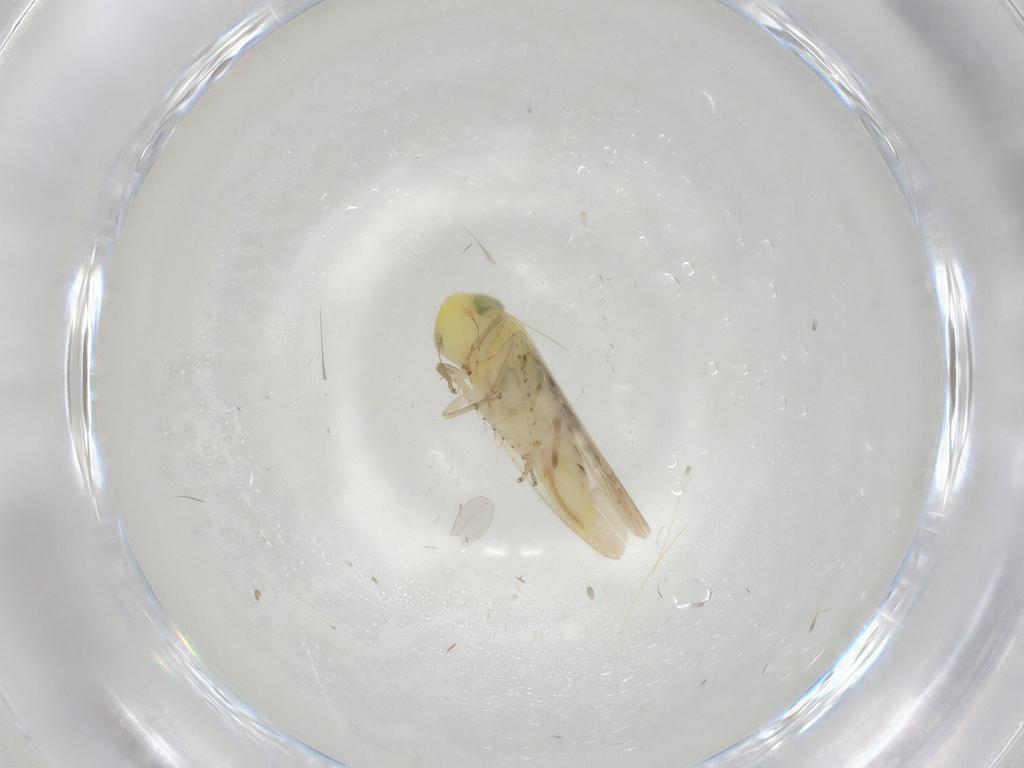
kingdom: Animalia
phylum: Arthropoda
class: Insecta
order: Hemiptera
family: Cicadellidae
